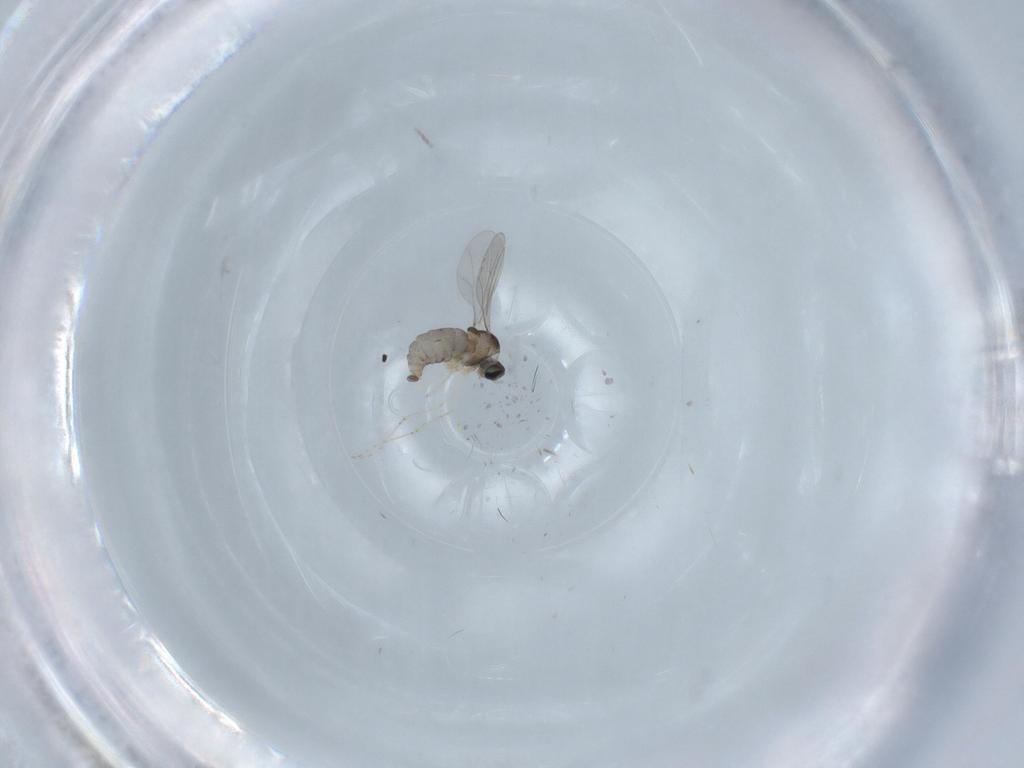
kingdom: Animalia
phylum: Arthropoda
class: Insecta
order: Diptera
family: Cecidomyiidae
